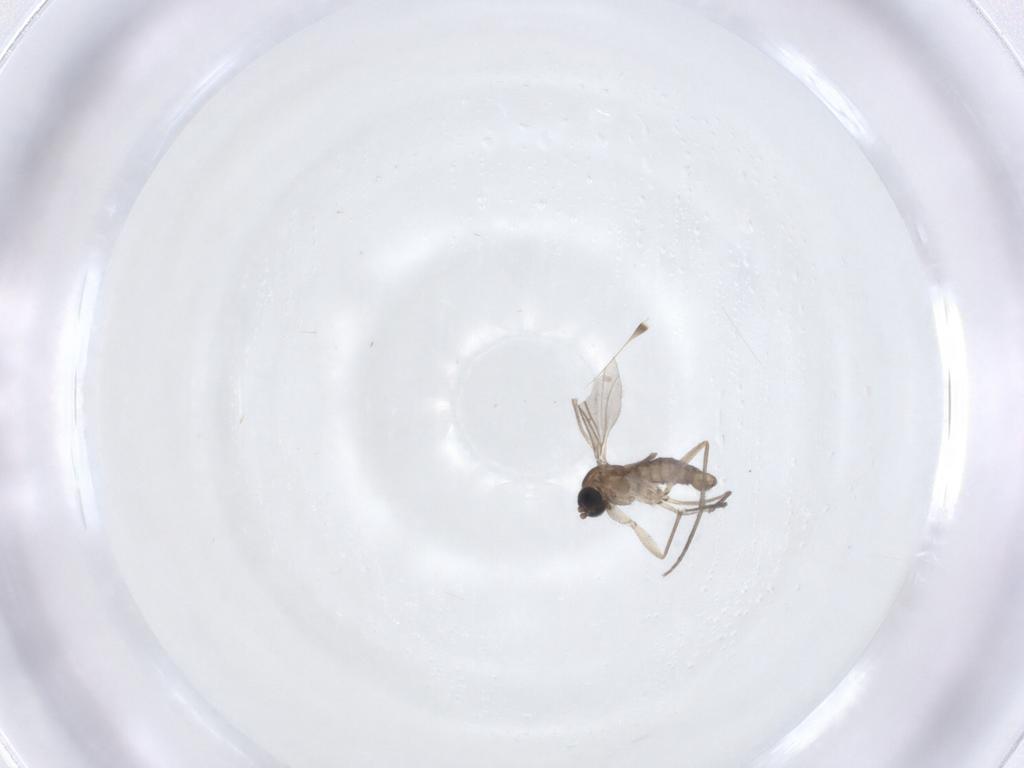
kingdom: Animalia
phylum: Arthropoda
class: Insecta
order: Diptera
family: Sciaridae
